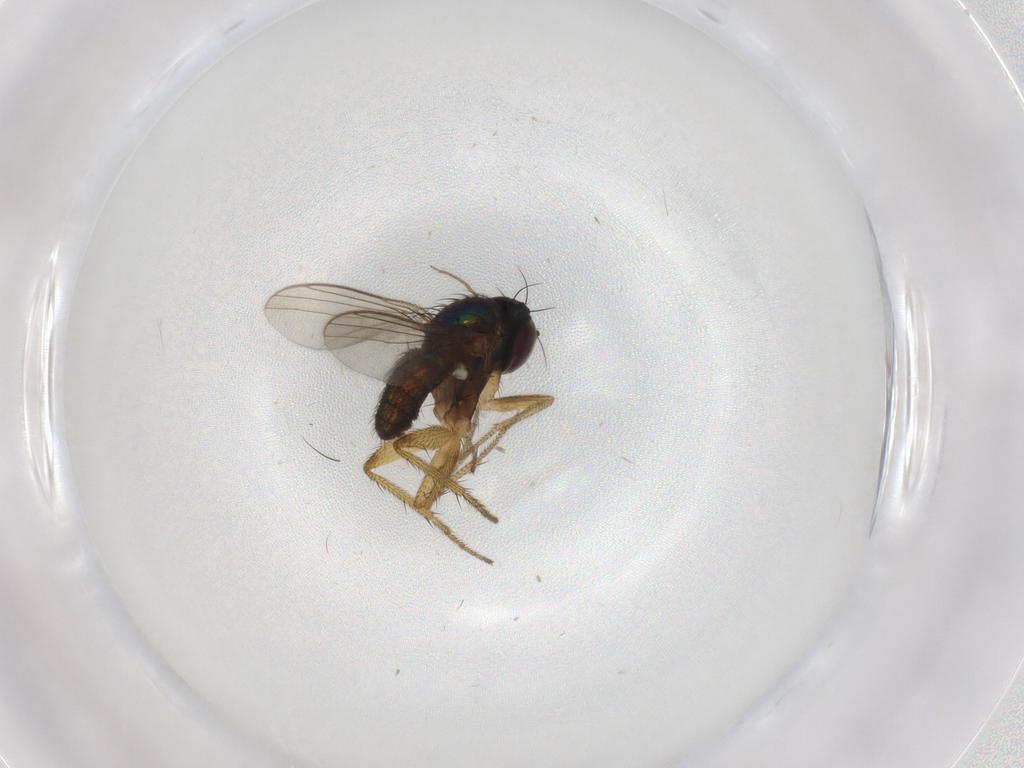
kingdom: Animalia
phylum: Arthropoda
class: Insecta
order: Diptera
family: Dolichopodidae
